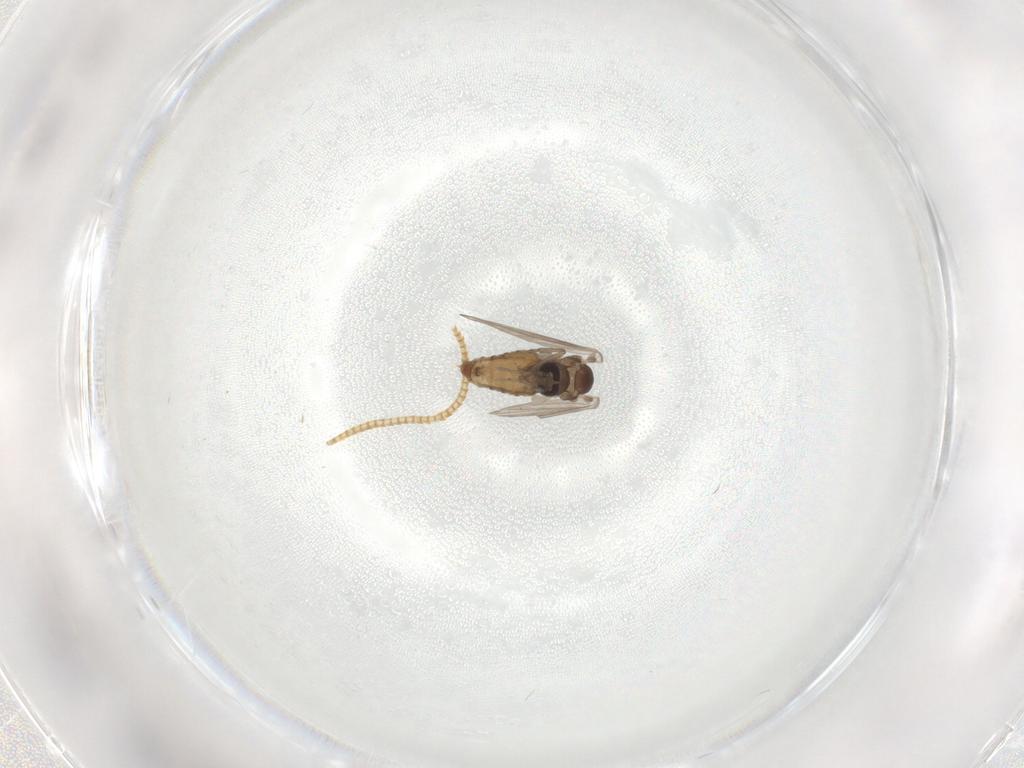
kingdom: Animalia
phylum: Arthropoda
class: Insecta
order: Diptera
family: Psychodidae
